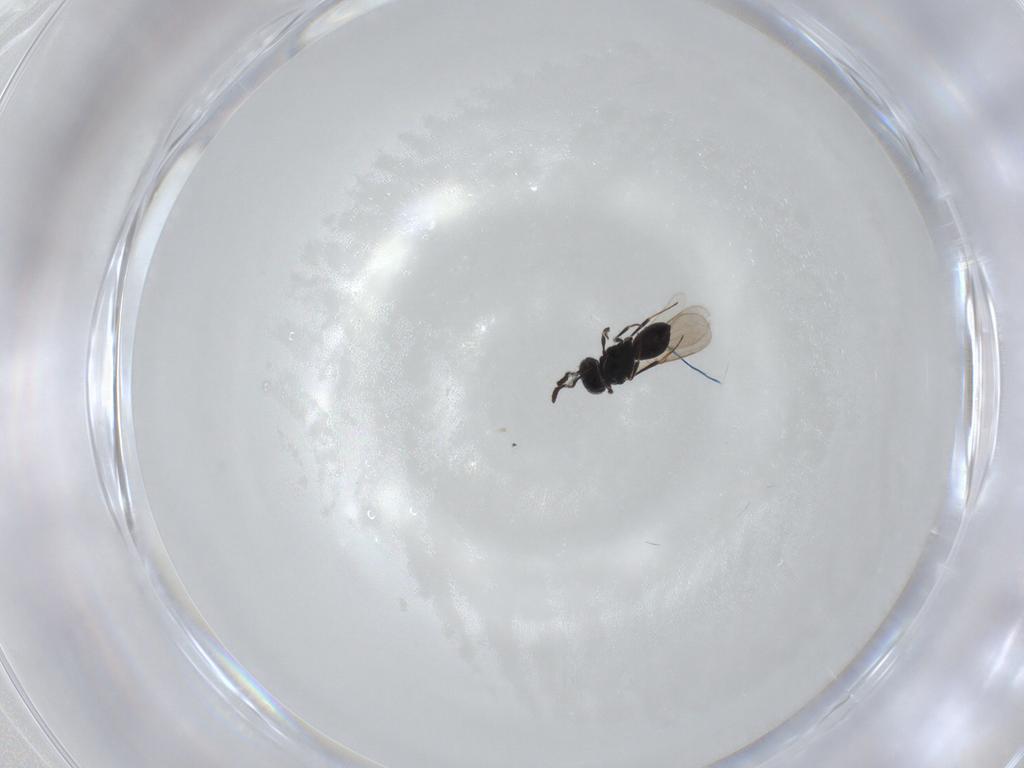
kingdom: Animalia
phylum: Arthropoda
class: Insecta
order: Hymenoptera
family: Scelionidae
